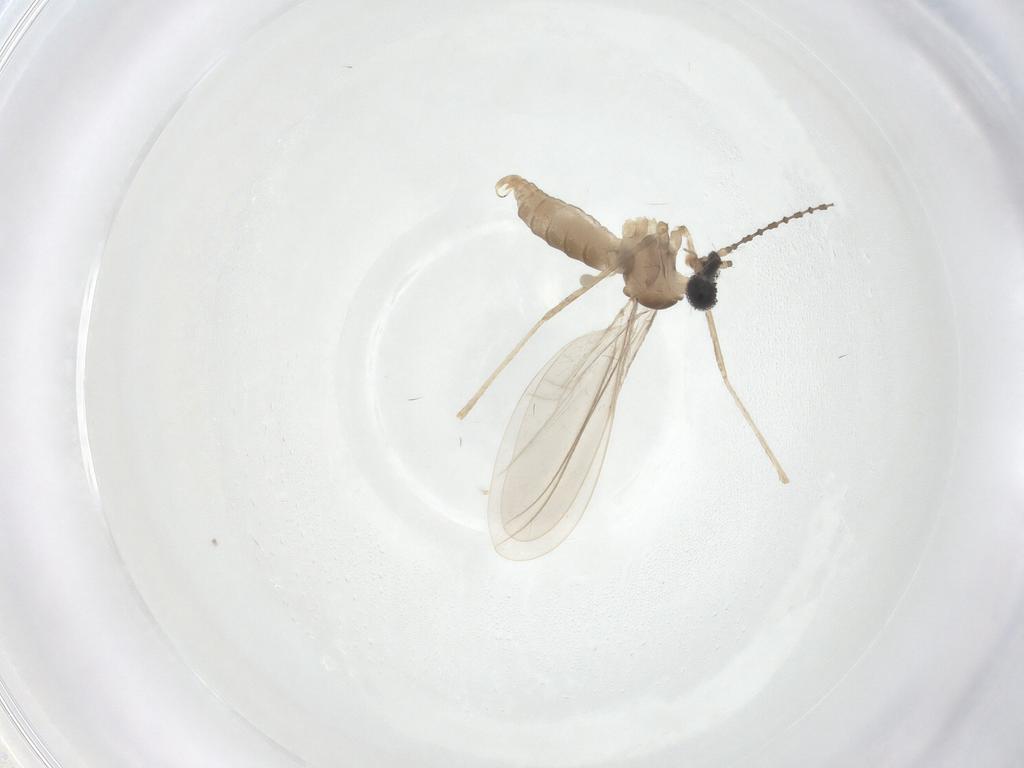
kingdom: Animalia
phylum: Arthropoda
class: Insecta
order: Diptera
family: Cecidomyiidae
